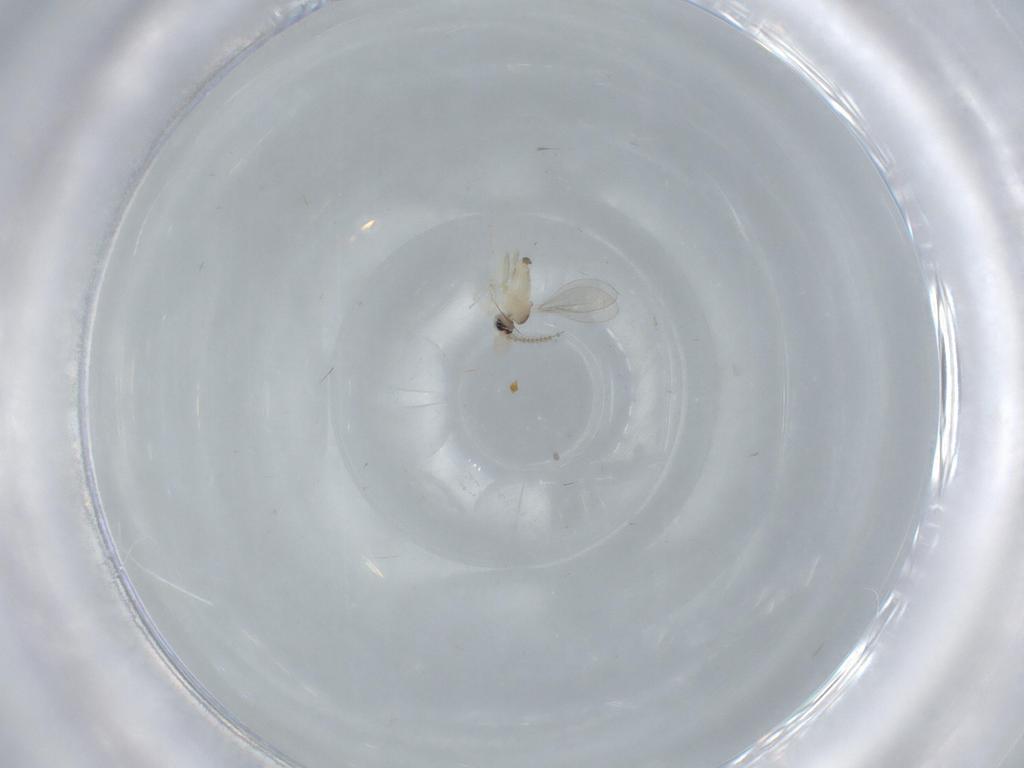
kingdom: Animalia
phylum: Arthropoda
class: Insecta
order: Diptera
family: Cecidomyiidae
